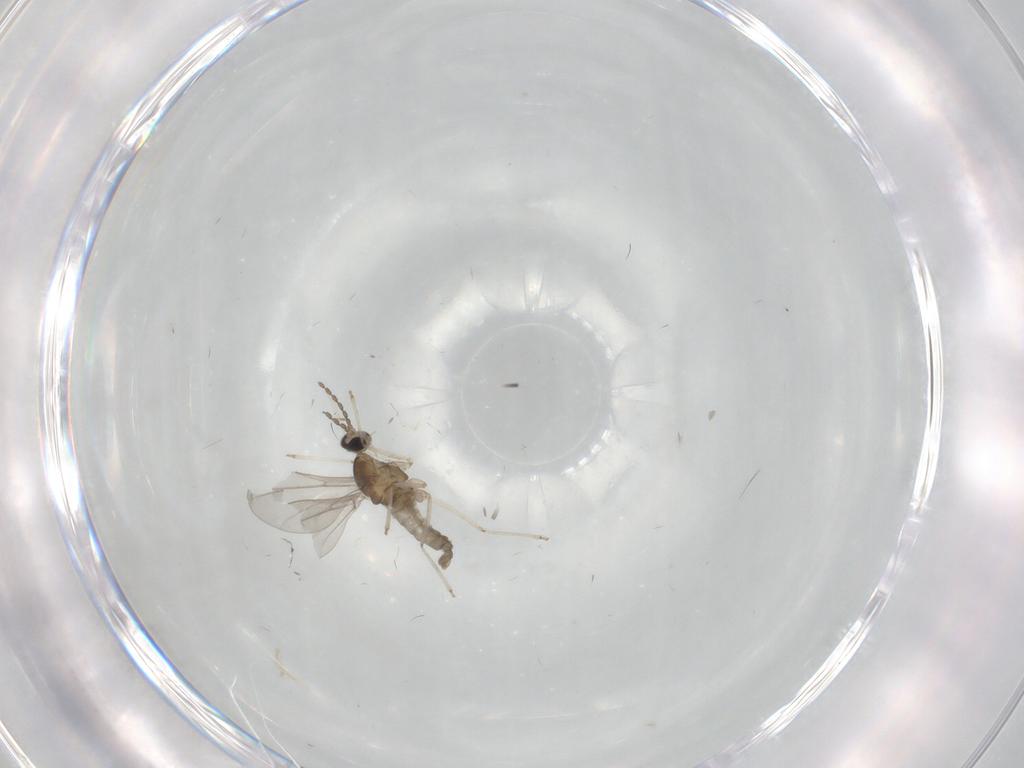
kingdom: Animalia
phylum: Arthropoda
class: Insecta
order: Diptera
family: Cecidomyiidae
